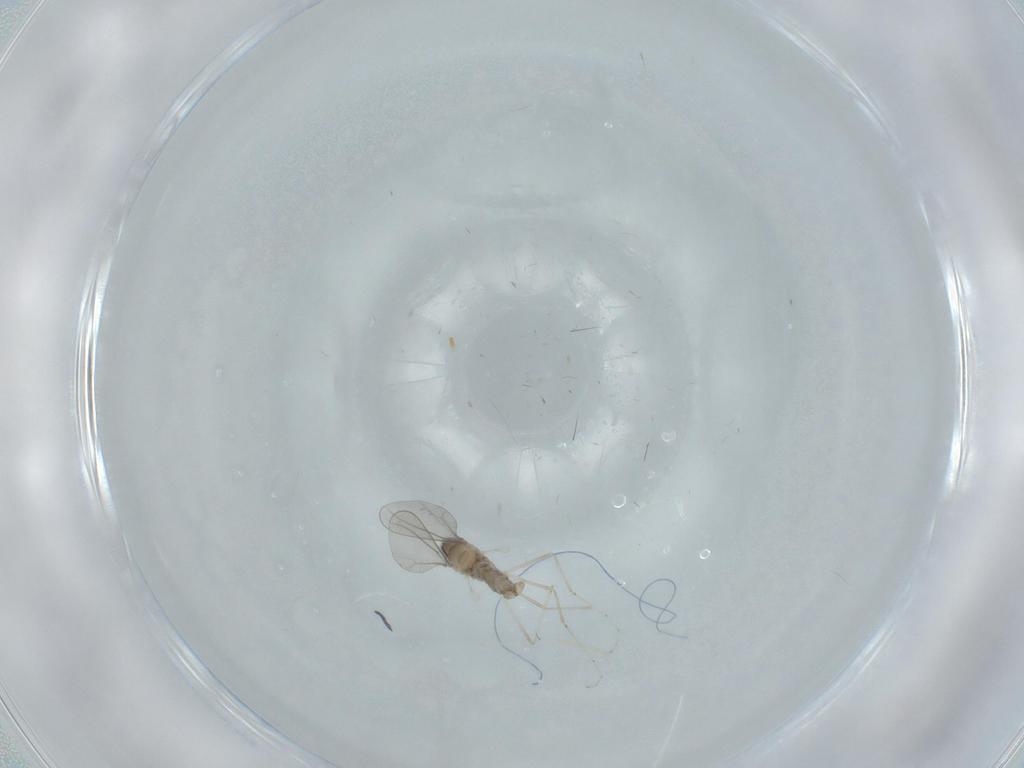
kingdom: Animalia
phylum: Arthropoda
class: Insecta
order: Diptera
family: Cecidomyiidae
